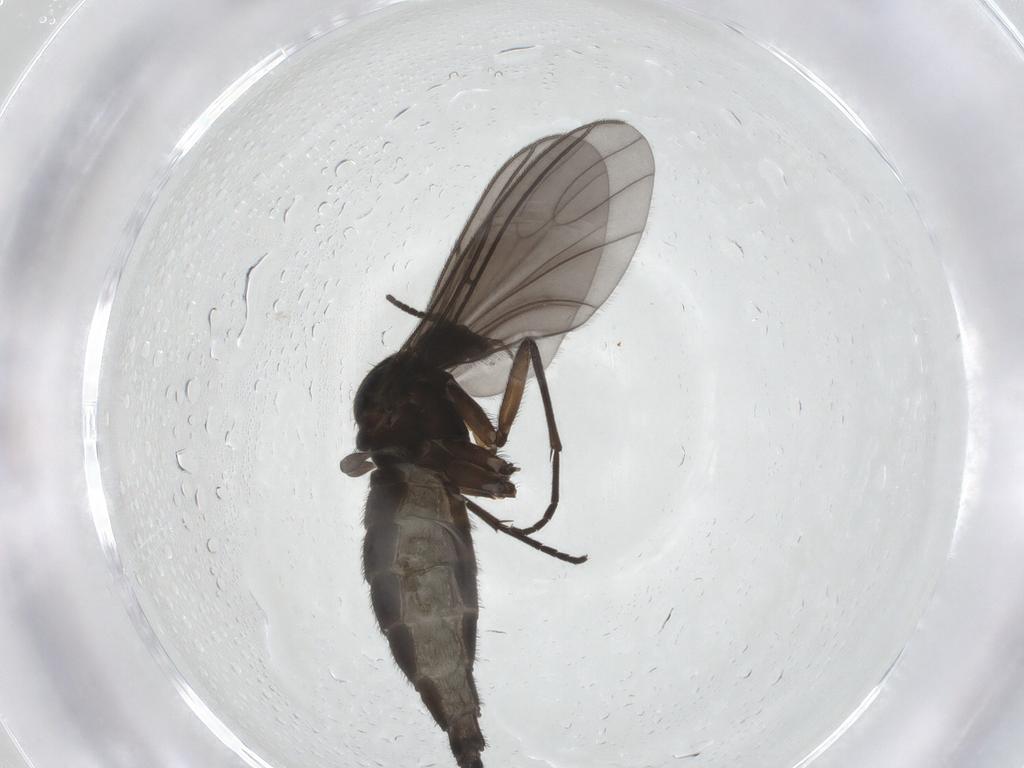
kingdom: Animalia
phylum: Arthropoda
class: Insecta
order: Diptera
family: Sciaridae
